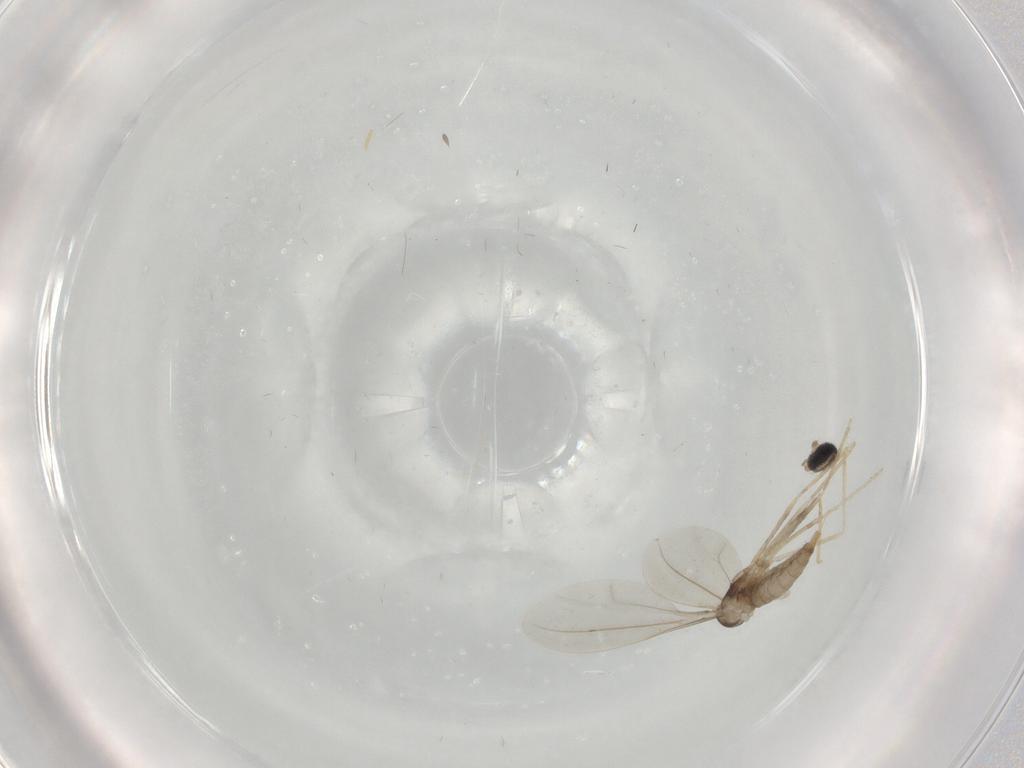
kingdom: Animalia
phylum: Arthropoda
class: Insecta
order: Diptera
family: Cecidomyiidae
